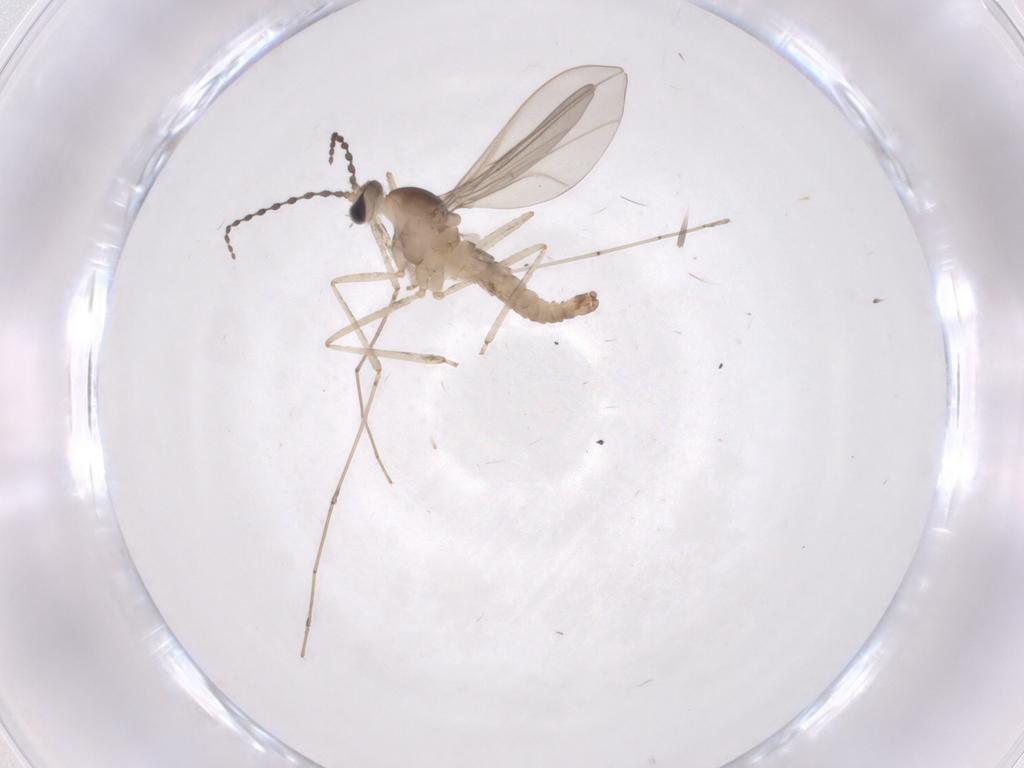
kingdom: Animalia
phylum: Arthropoda
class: Insecta
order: Diptera
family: Cecidomyiidae
